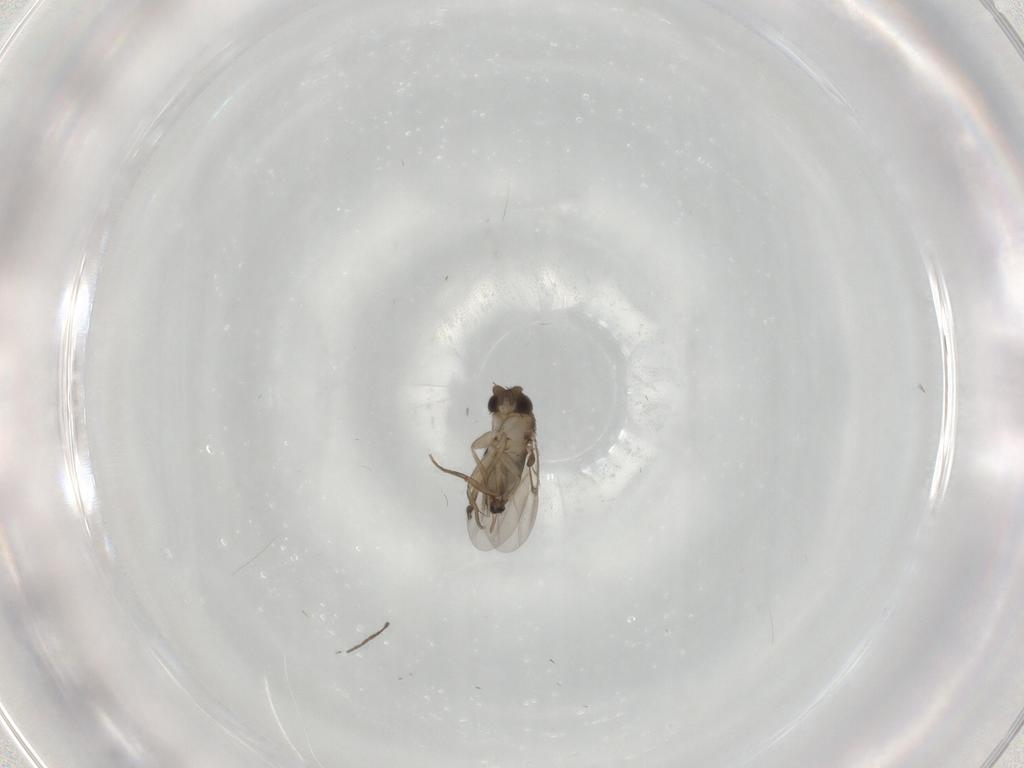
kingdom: Animalia
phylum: Arthropoda
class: Insecta
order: Diptera
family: Phoridae
